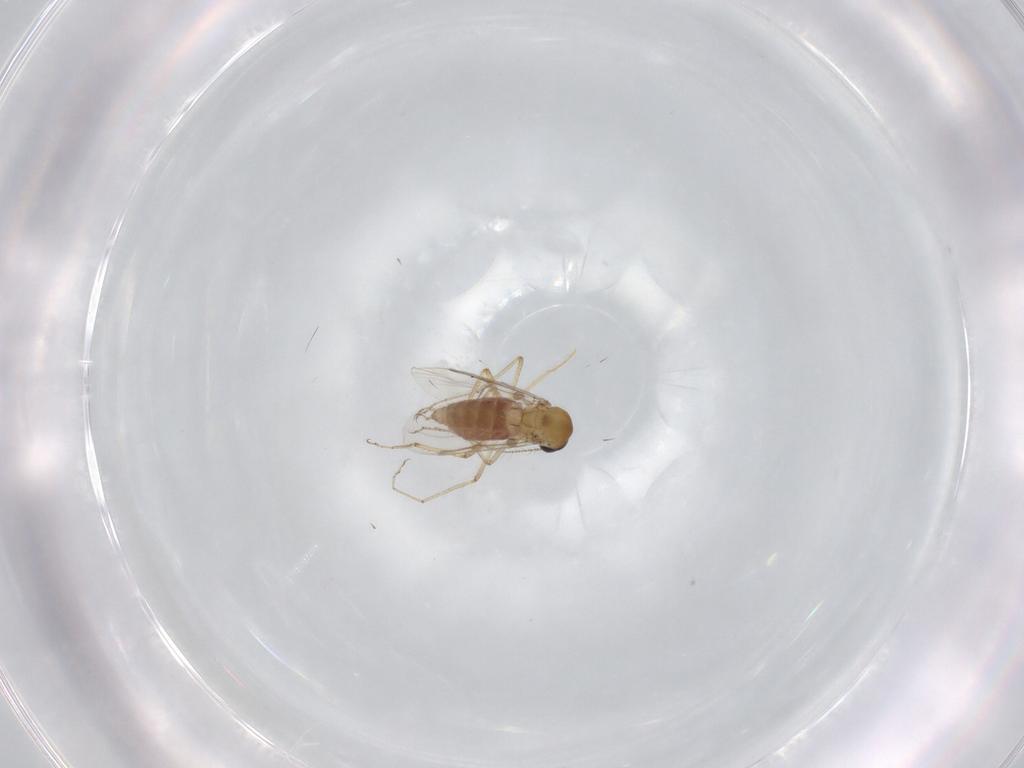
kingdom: Animalia
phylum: Arthropoda
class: Insecta
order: Diptera
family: Ceratopogonidae
